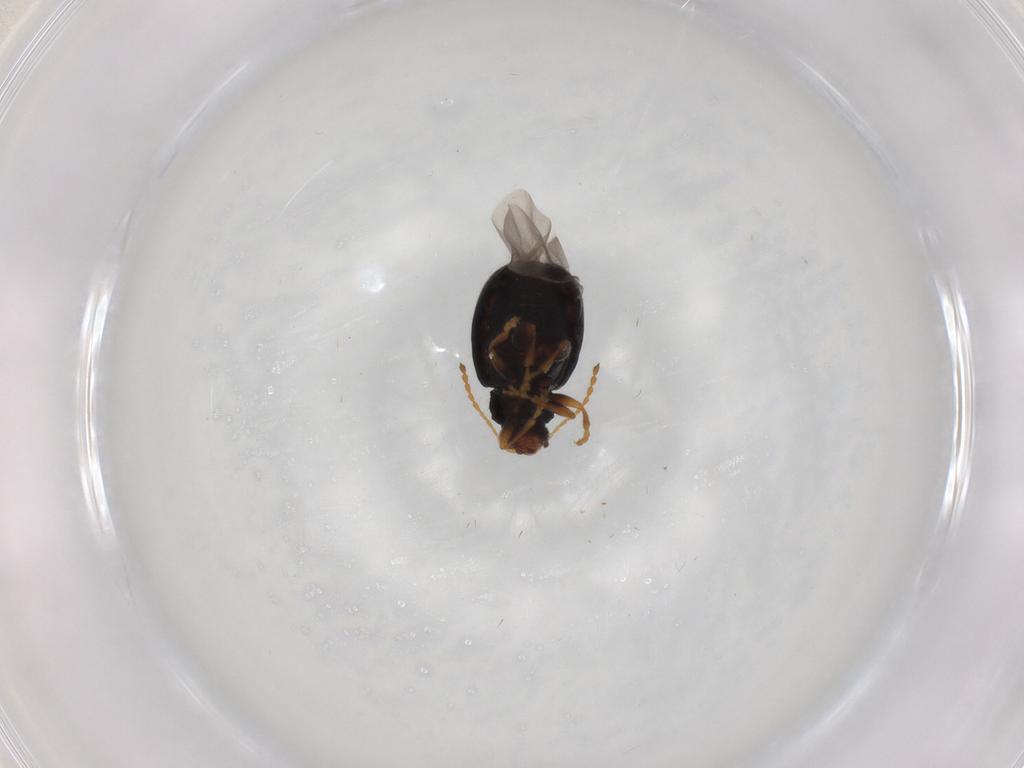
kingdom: Animalia
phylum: Arthropoda
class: Insecta
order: Coleoptera
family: Chrysomelidae
